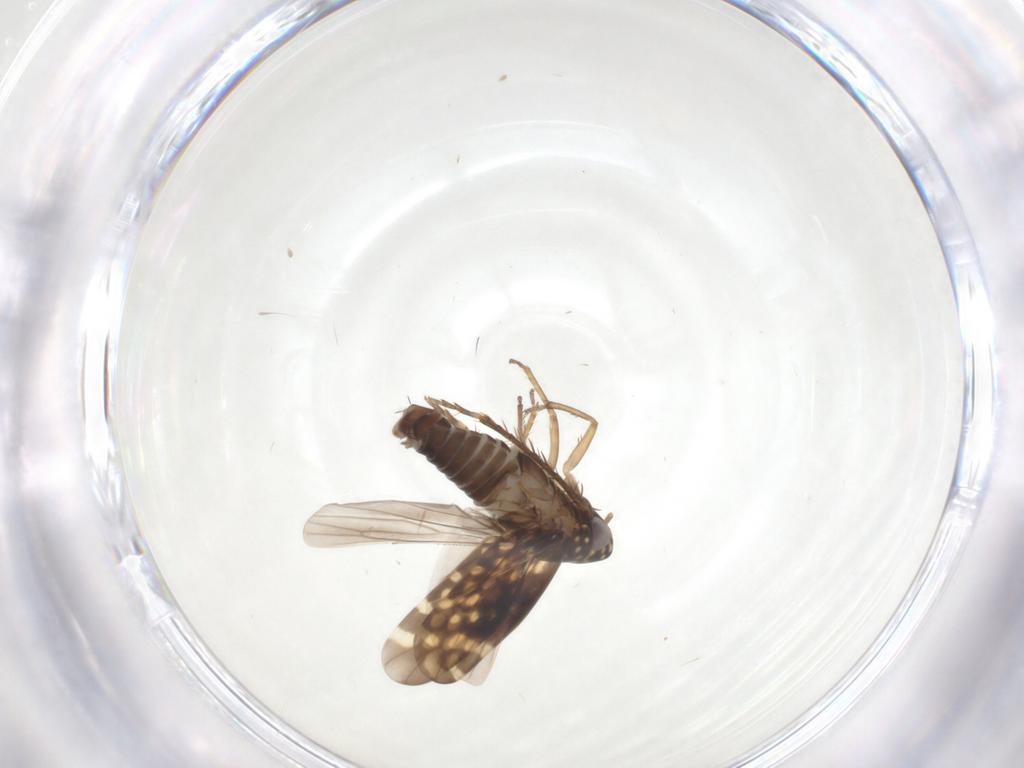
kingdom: Animalia
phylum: Arthropoda
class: Insecta
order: Hemiptera
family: Cicadellidae
